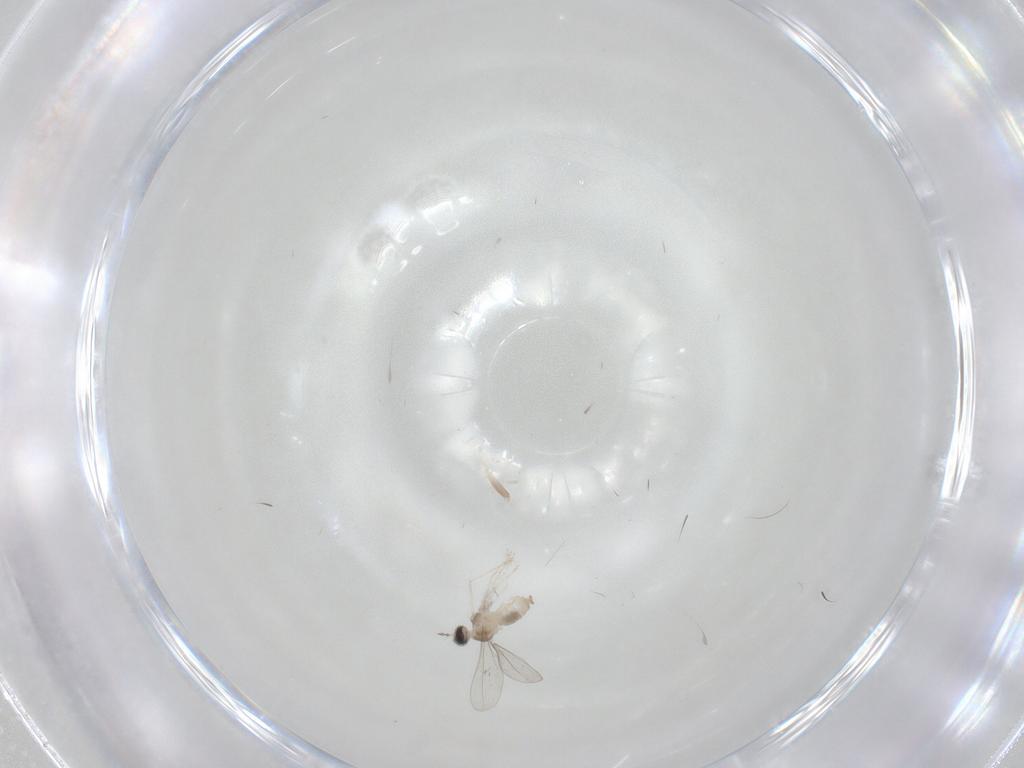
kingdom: Animalia
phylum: Arthropoda
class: Insecta
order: Diptera
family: Cecidomyiidae
